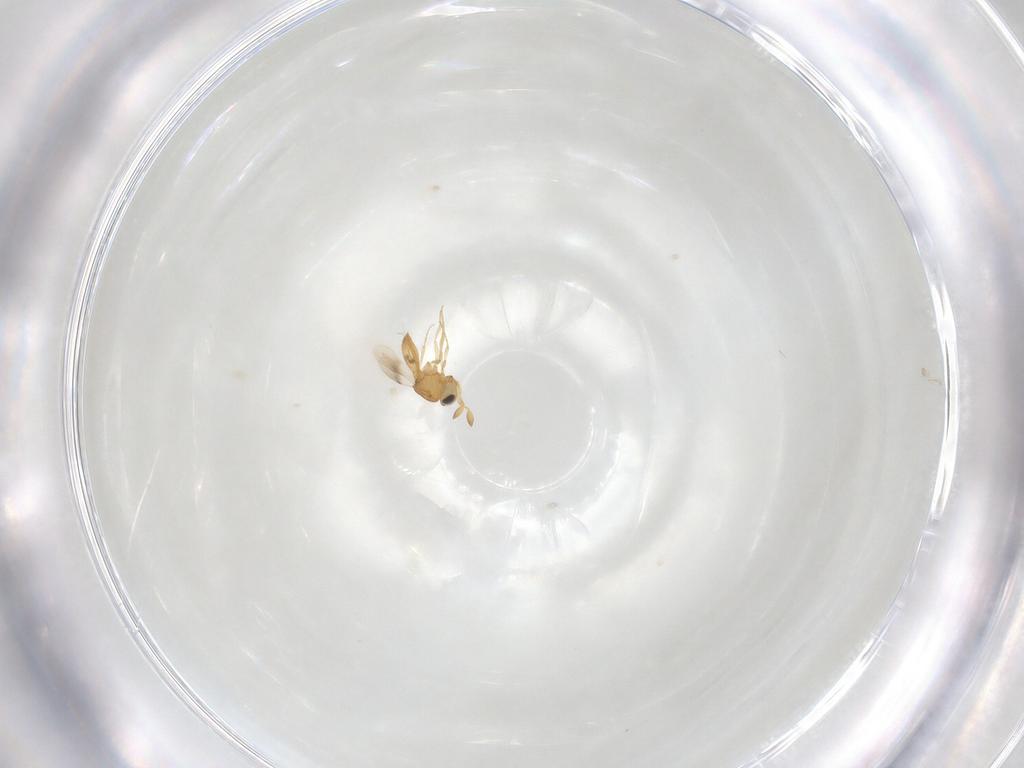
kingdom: Animalia
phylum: Arthropoda
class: Insecta
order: Hymenoptera
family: Scelionidae
